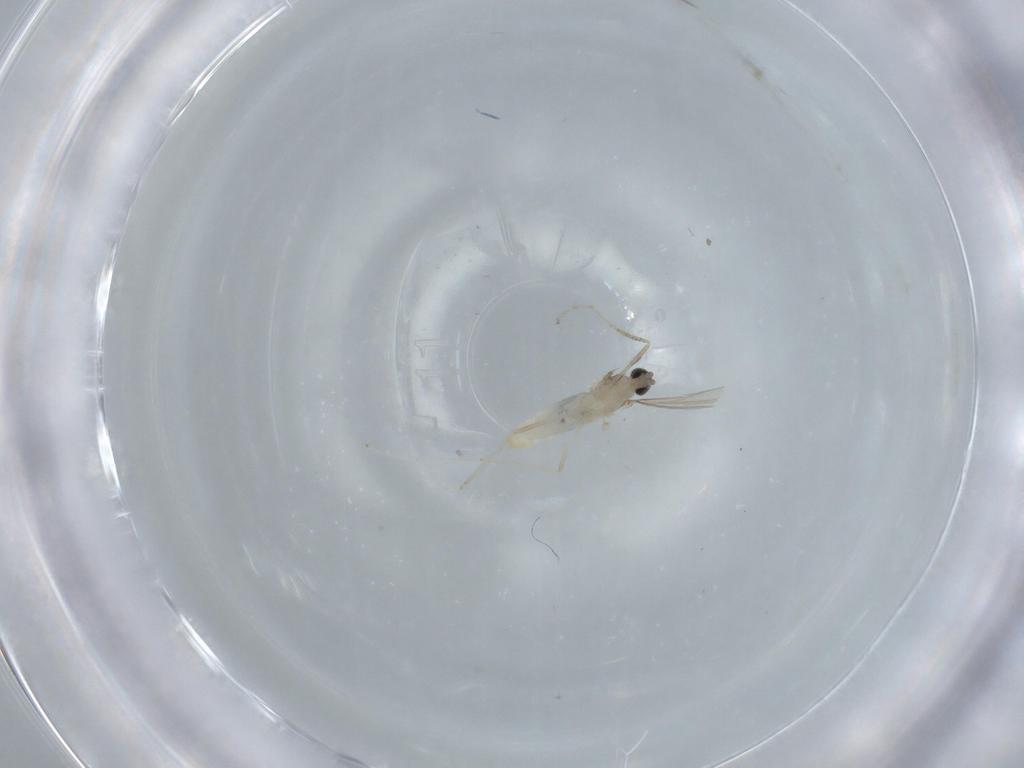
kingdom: Animalia
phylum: Arthropoda
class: Insecta
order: Diptera
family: Cecidomyiidae
